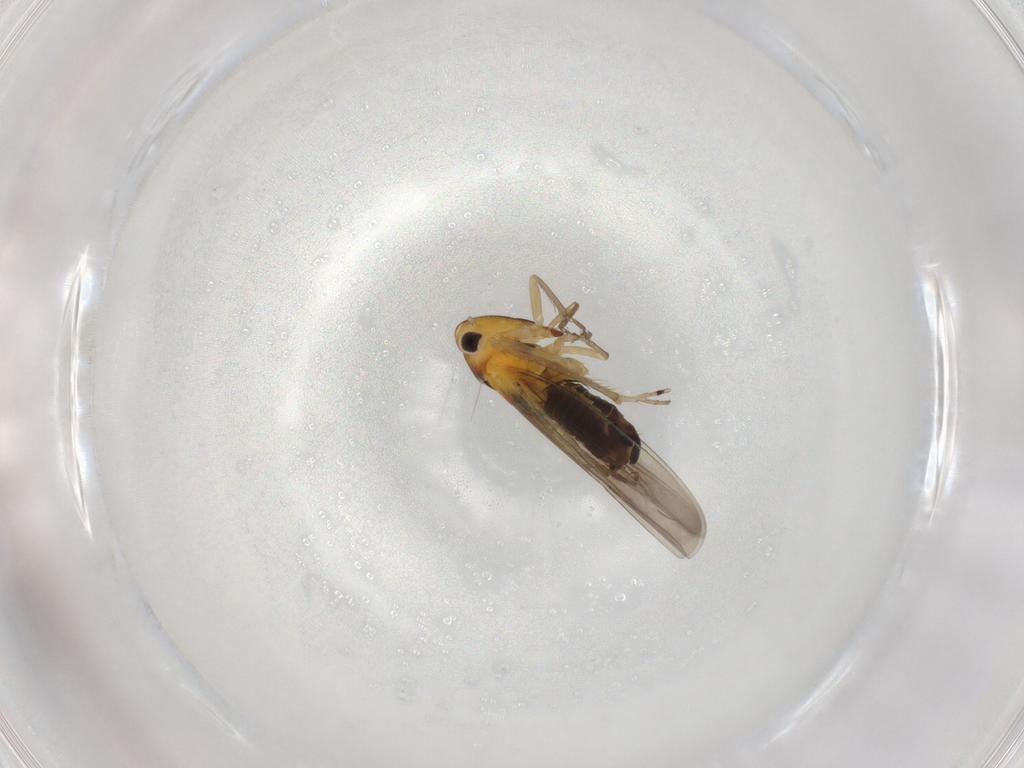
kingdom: Animalia
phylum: Arthropoda
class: Insecta
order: Hemiptera
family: Cicadellidae
